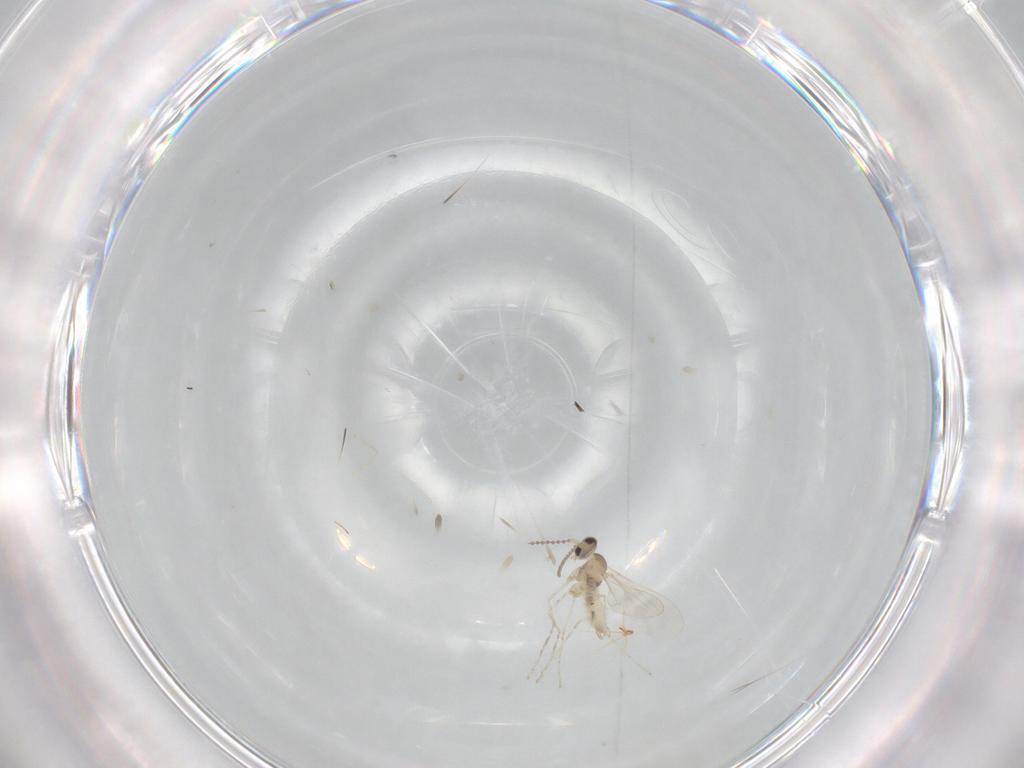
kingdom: Animalia
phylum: Arthropoda
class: Insecta
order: Diptera
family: Cecidomyiidae
